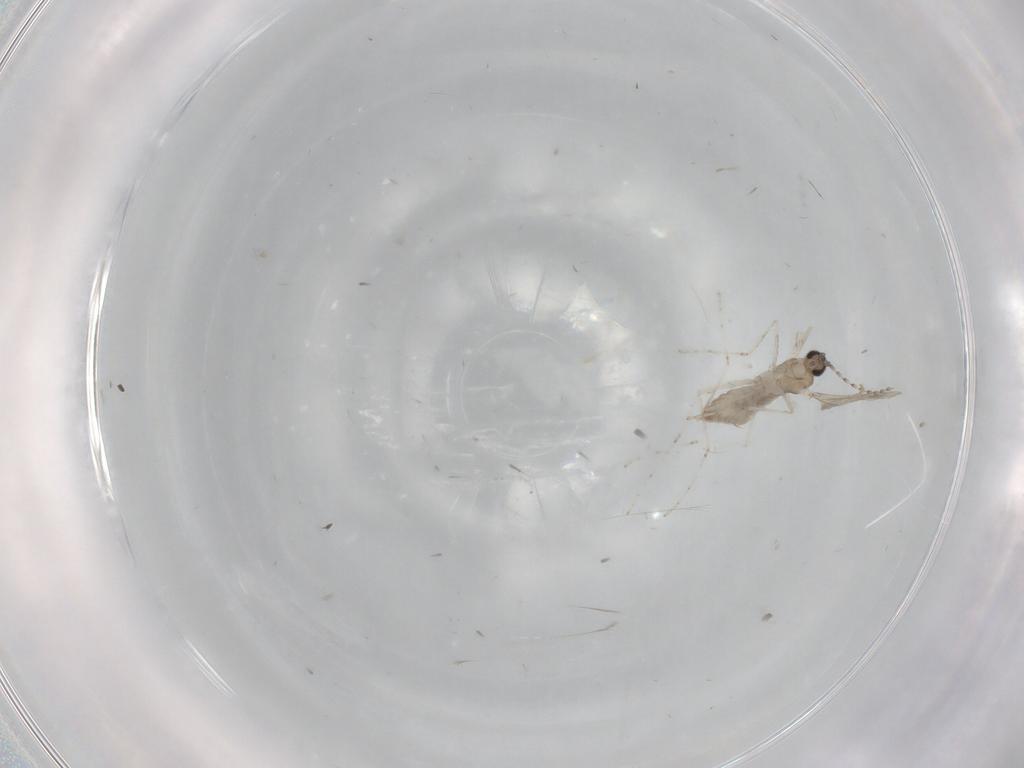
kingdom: Animalia
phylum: Arthropoda
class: Insecta
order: Diptera
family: Cecidomyiidae
